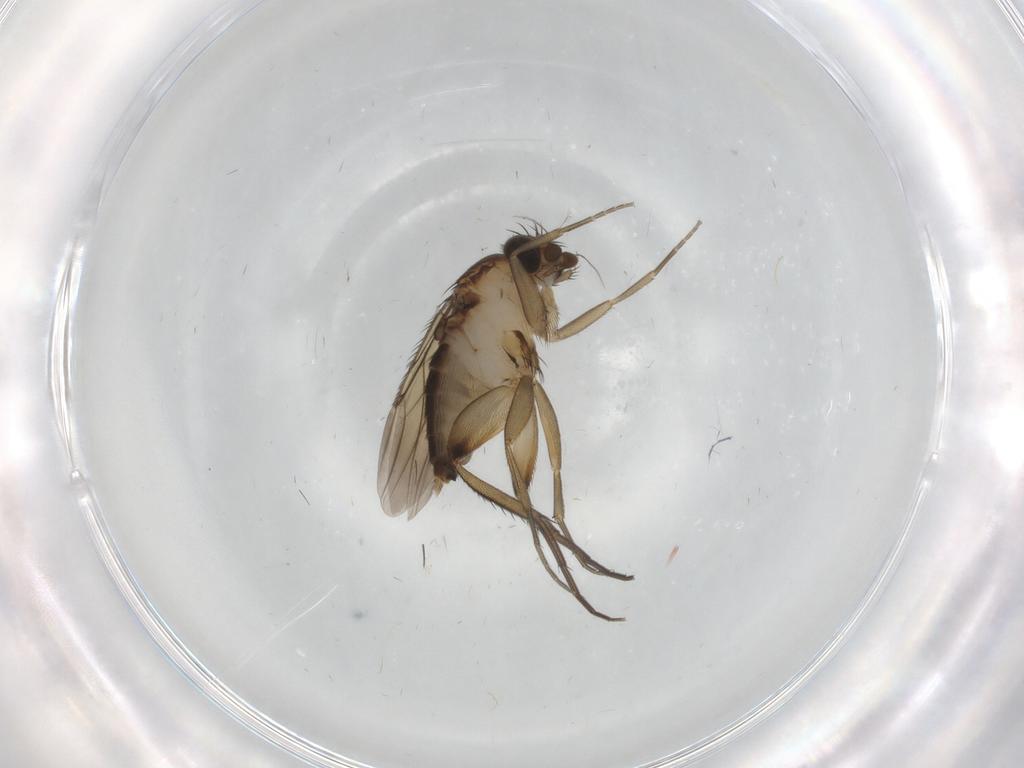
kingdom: Animalia
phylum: Arthropoda
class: Insecta
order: Diptera
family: Phoridae
